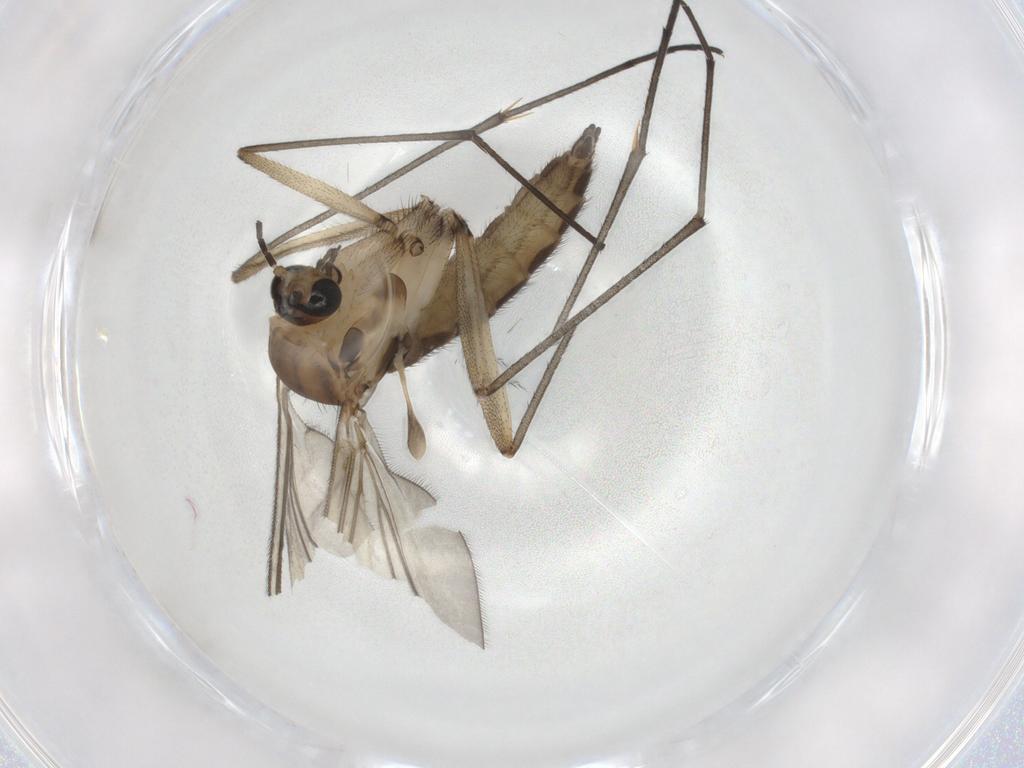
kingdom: Animalia
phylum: Arthropoda
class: Insecta
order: Diptera
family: Sciaridae
